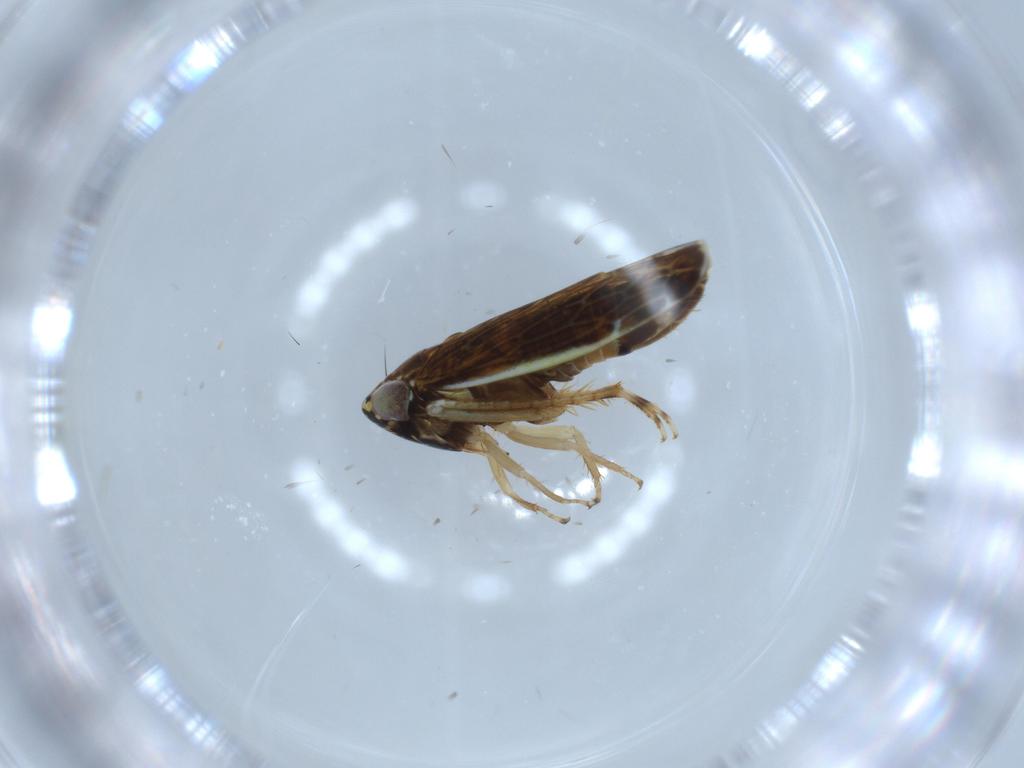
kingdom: Animalia
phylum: Arthropoda
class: Insecta
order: Hemiptera
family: Cicadellidae
